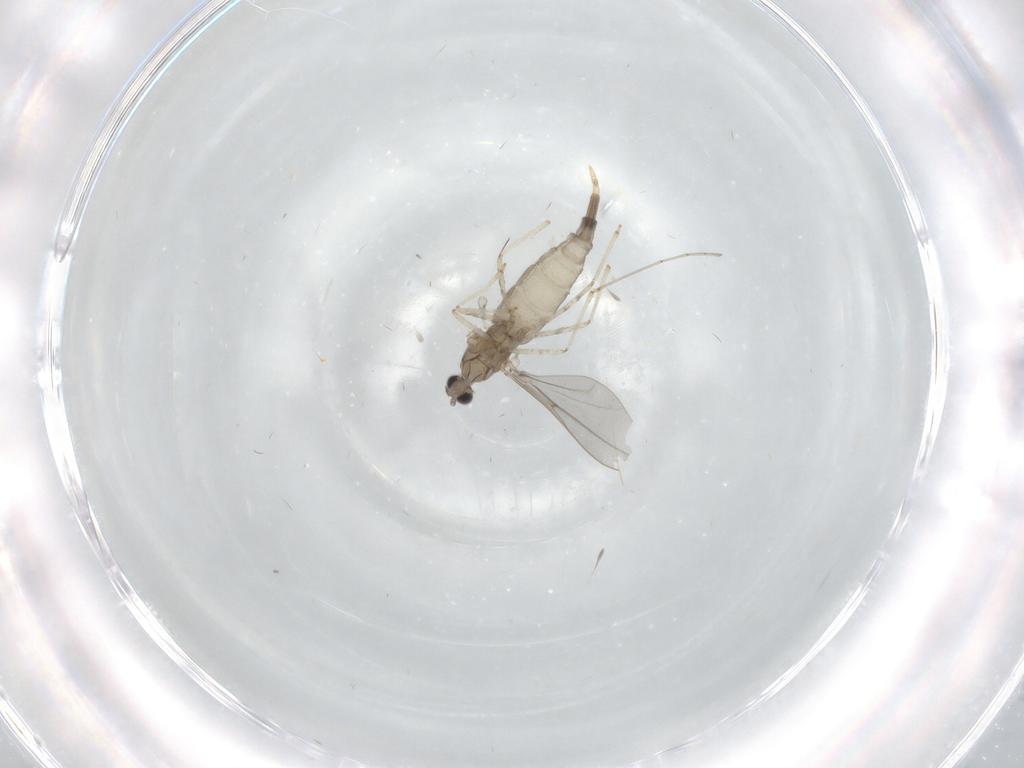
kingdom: Animalia
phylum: Arthropoda
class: Insecta
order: Diptera
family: Cecidomyiidae
